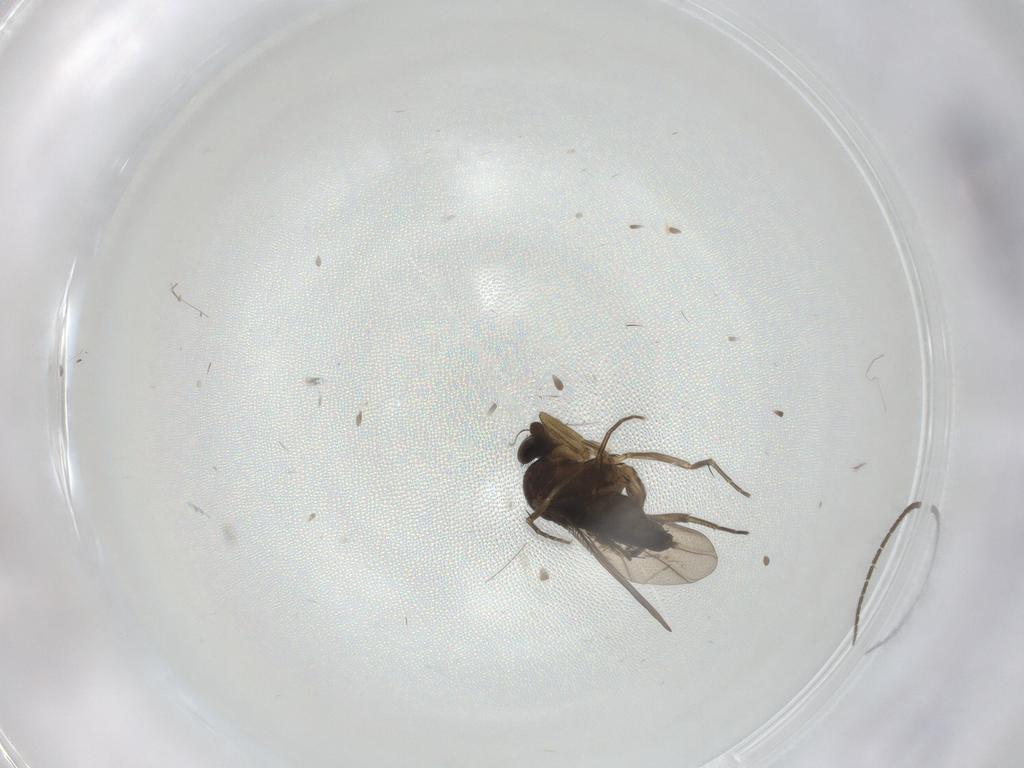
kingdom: Animalia
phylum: Arthropoda
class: Insecta
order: Diptera
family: Phoridae
